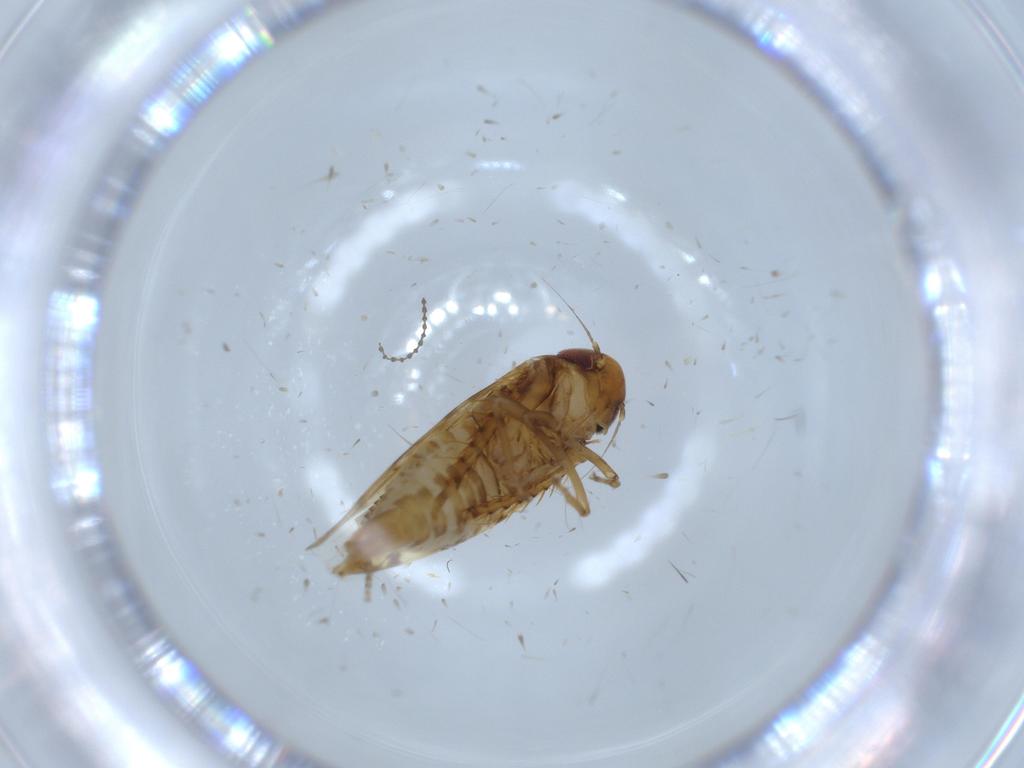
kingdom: Animalia
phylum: Arthropoda
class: Insecta
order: Hemiptera
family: Cicadellidae
